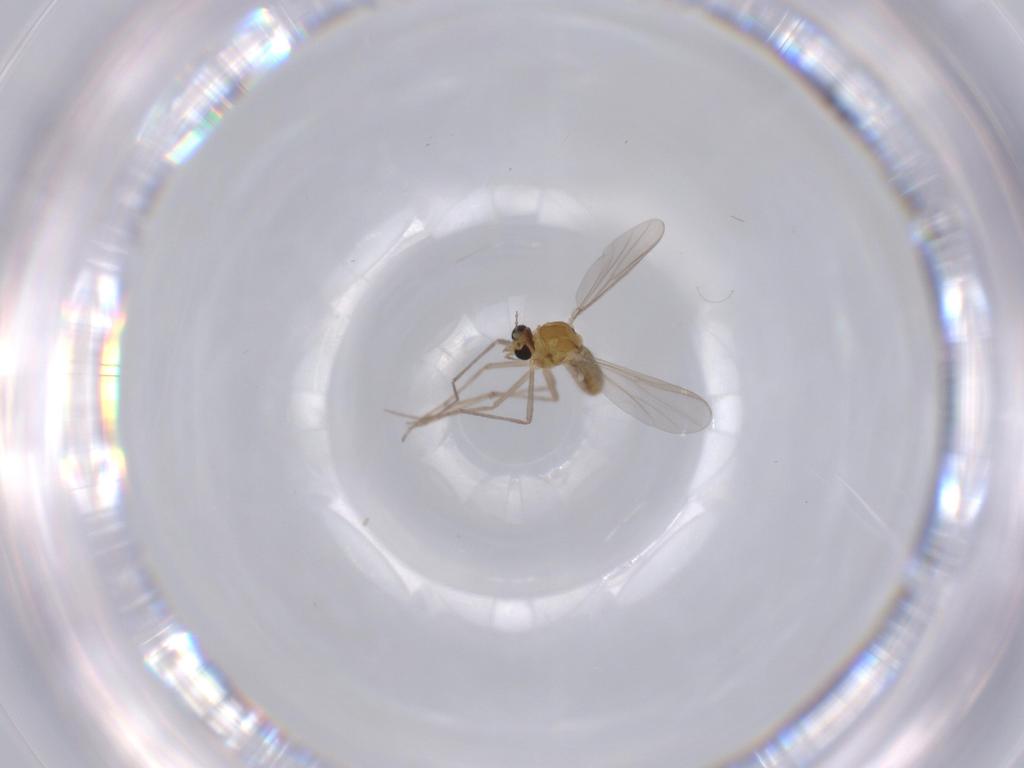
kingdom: Animalia
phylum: Arthropoda
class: Insecta
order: Diptera
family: Chironomidae
